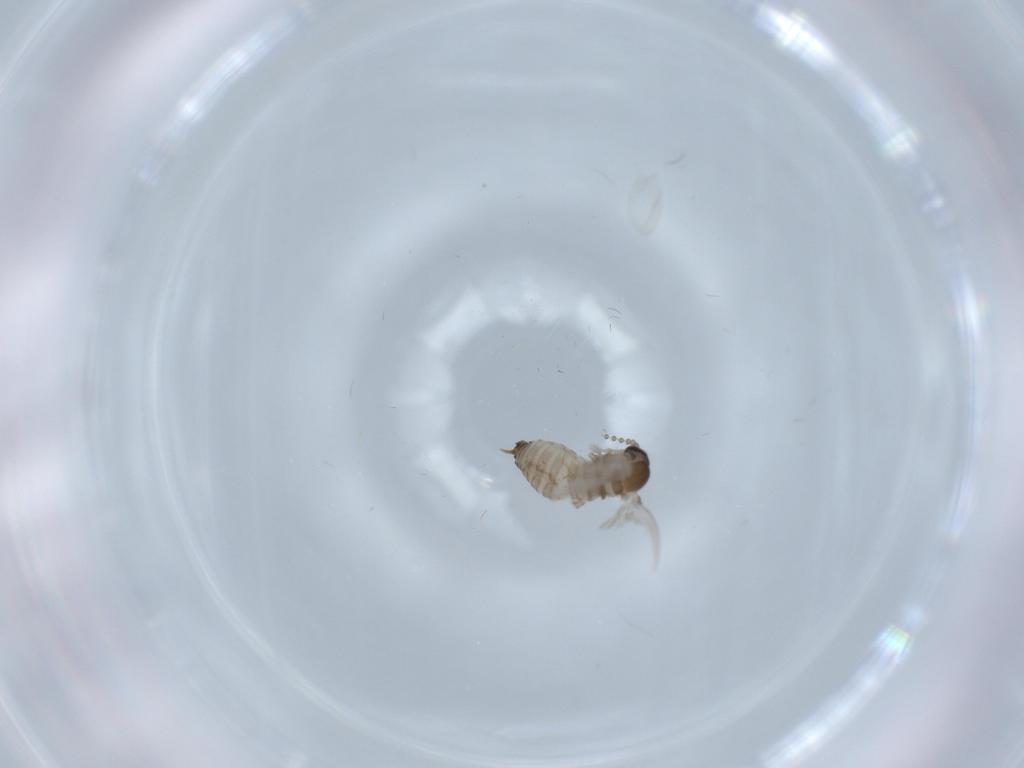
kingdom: Animalia
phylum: Arthropoda
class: Insecta
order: Diptera
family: Psychodidae
